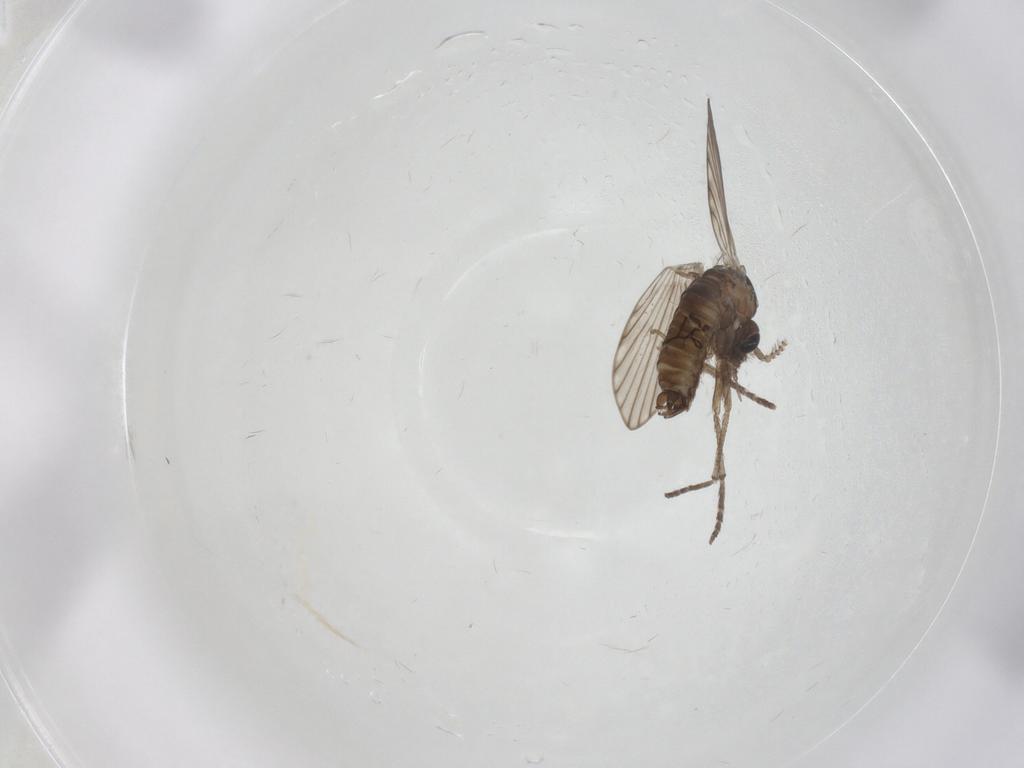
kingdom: Animalia
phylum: Arthropoda
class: Insecta
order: Diptera
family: Psychodidae
